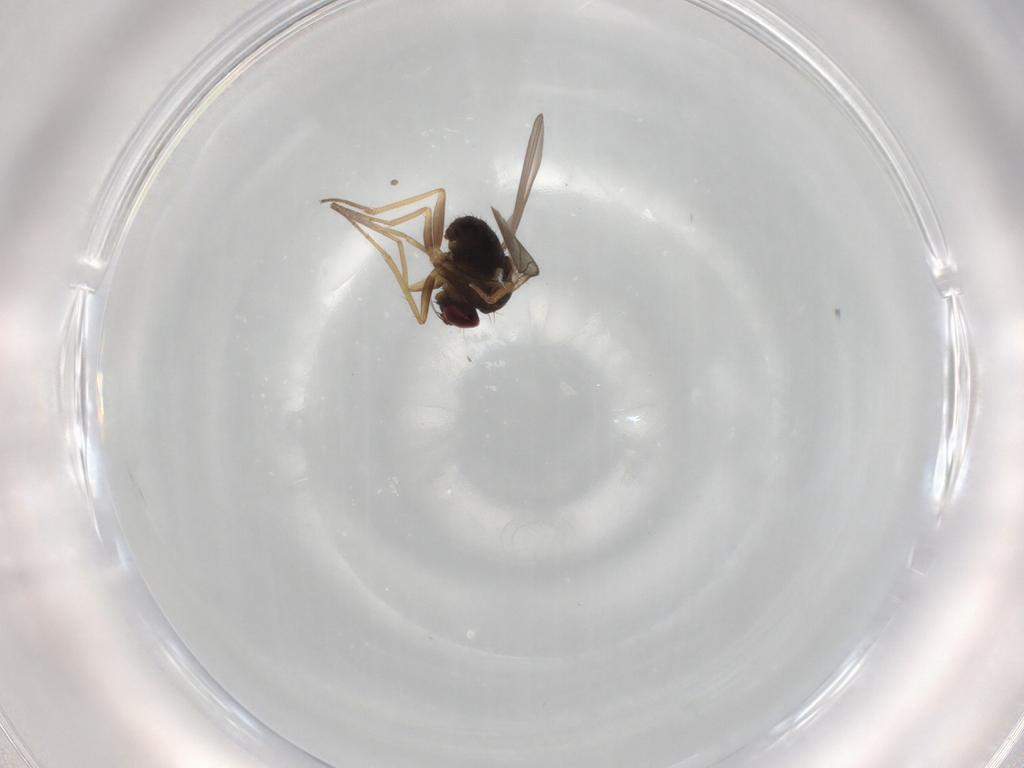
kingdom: Animalia
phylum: Arthropoda
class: Insecta
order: Diptera
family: Dolichopodidae
